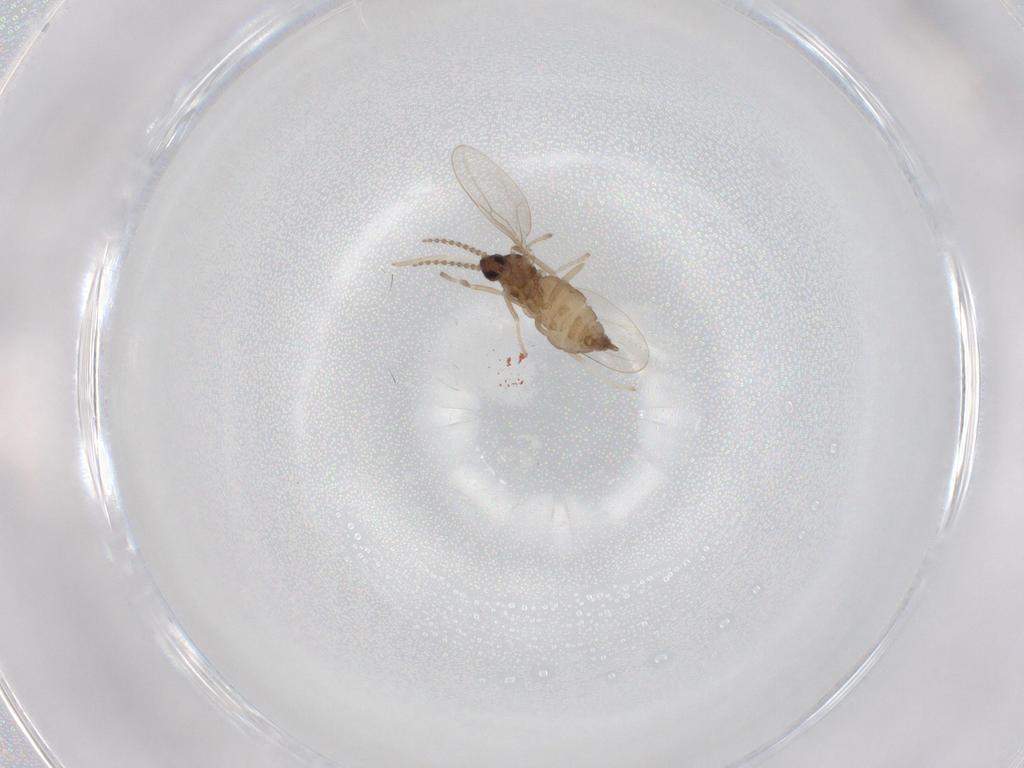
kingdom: Animalia
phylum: Arthropoda
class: Insecta
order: Diptera
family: Cecidomyiidae
